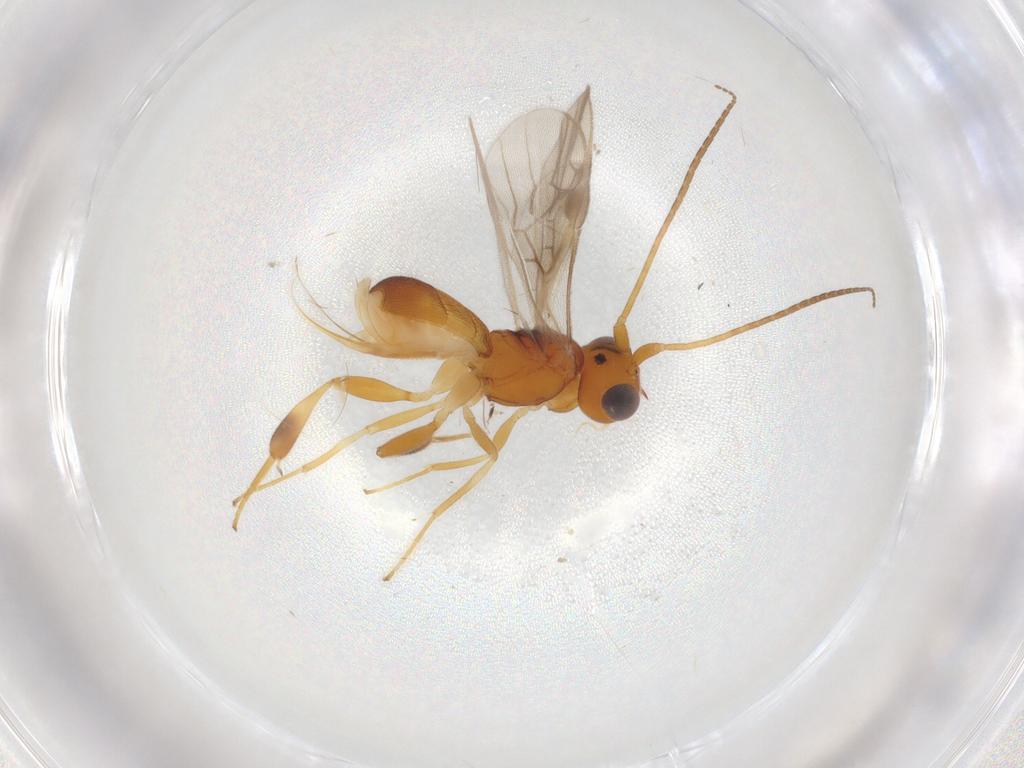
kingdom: Animalia
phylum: Arthropoda
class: Insecta
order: Hymenoptera
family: Braconidae
